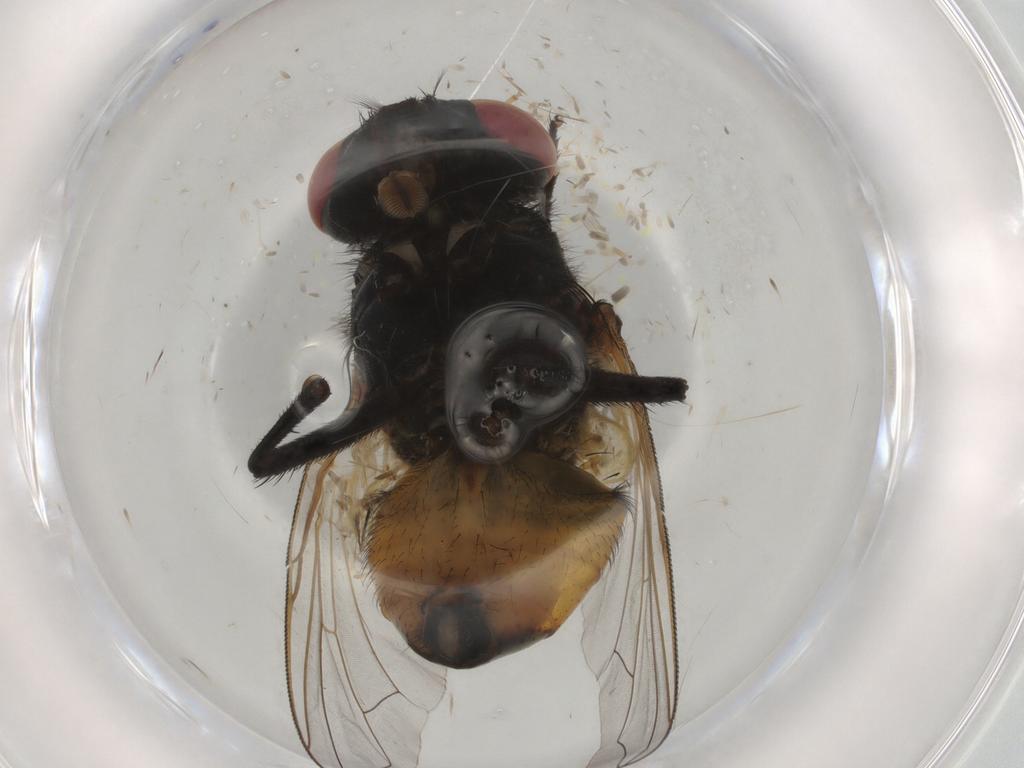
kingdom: Animalia
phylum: Arthropoda
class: Insecta
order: Diptera
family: Muscidae
